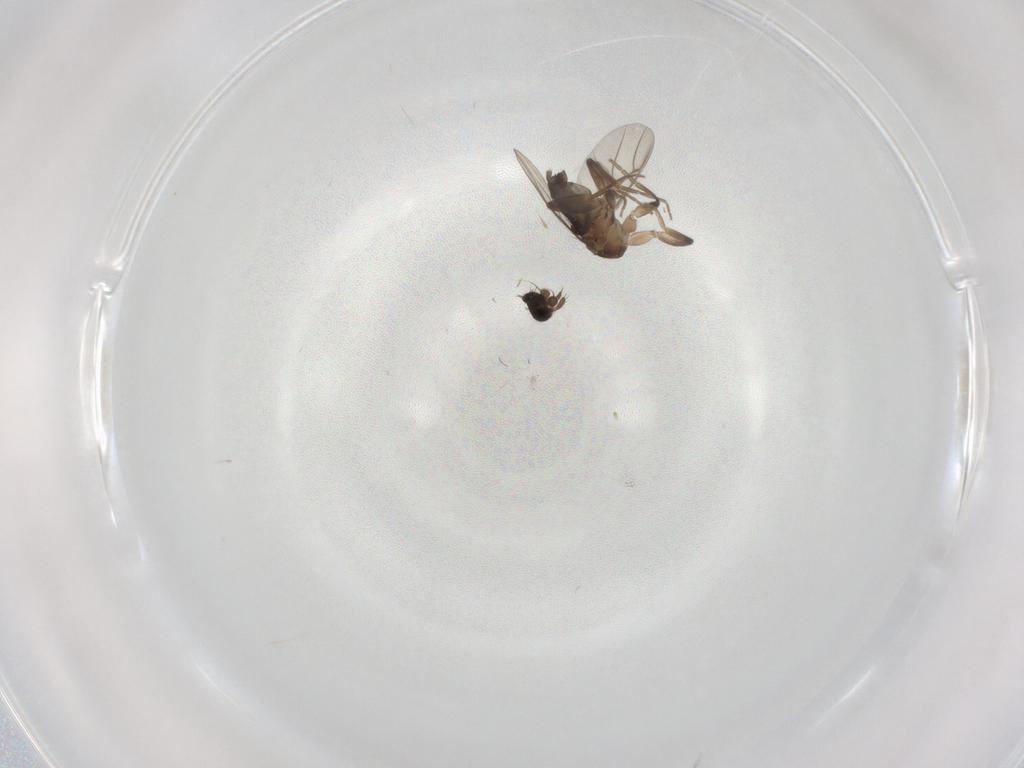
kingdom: Animalia
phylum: Arthropoda
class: Insecta
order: Diptera
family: Phoridae
